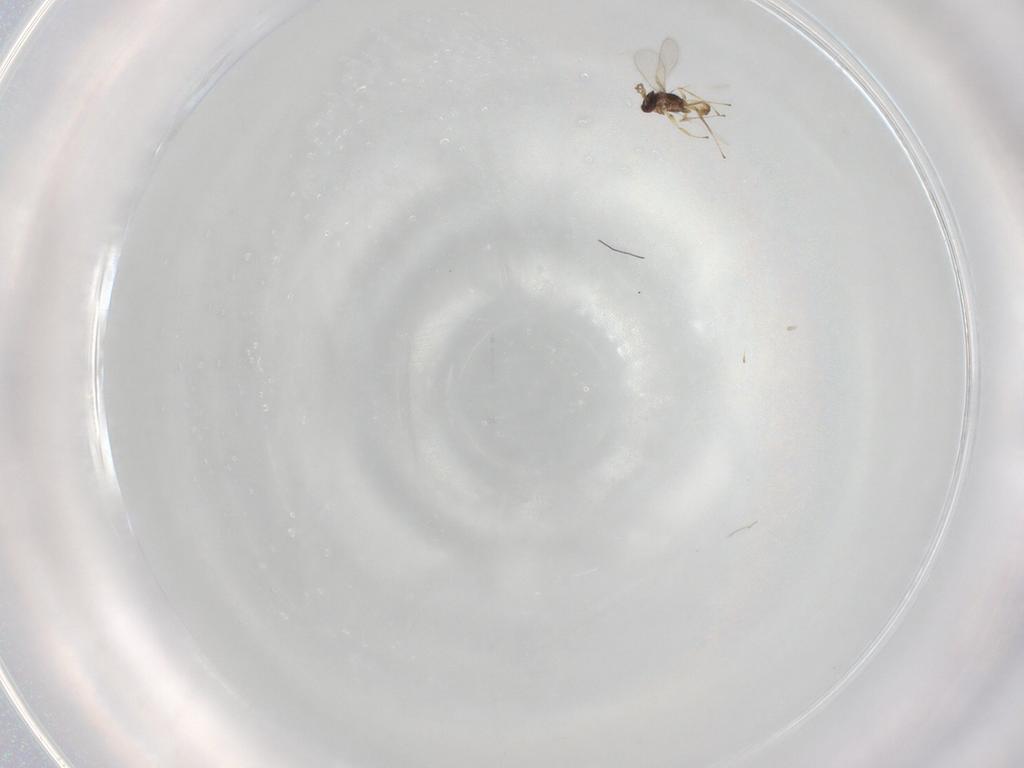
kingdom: Animalia
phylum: Arthropoda
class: Insecta
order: Hymenoptera
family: Mymaridae
